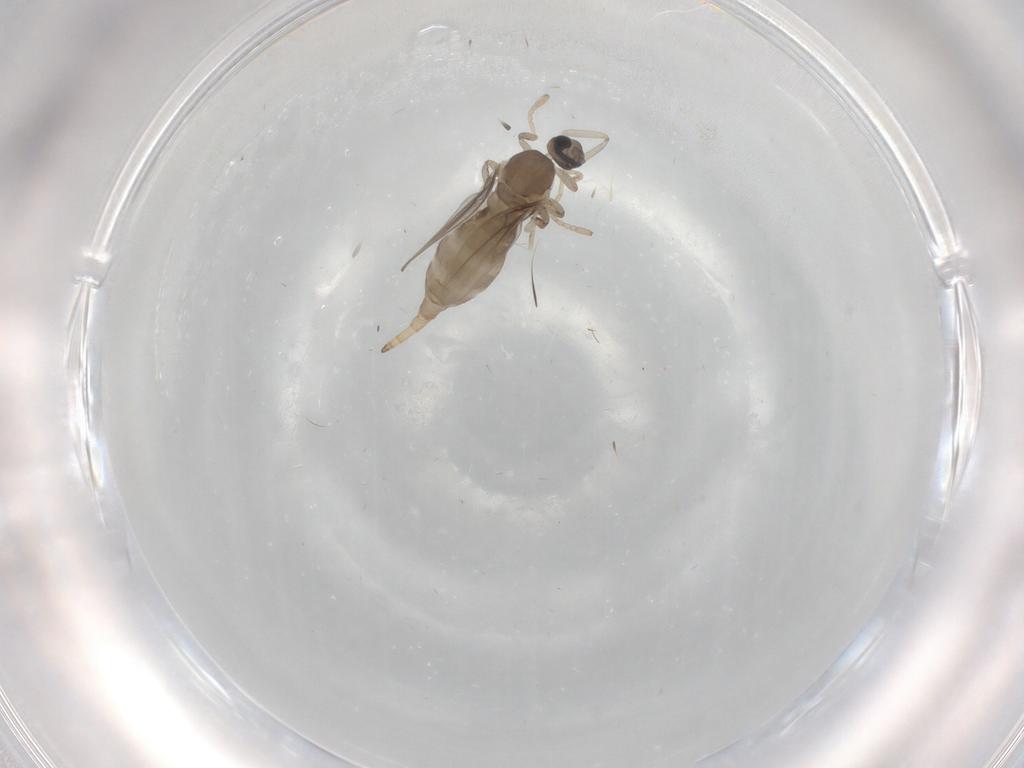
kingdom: Animalia
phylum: Arthropoda
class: Insecta
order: Diptera
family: Cecidomyiidae
